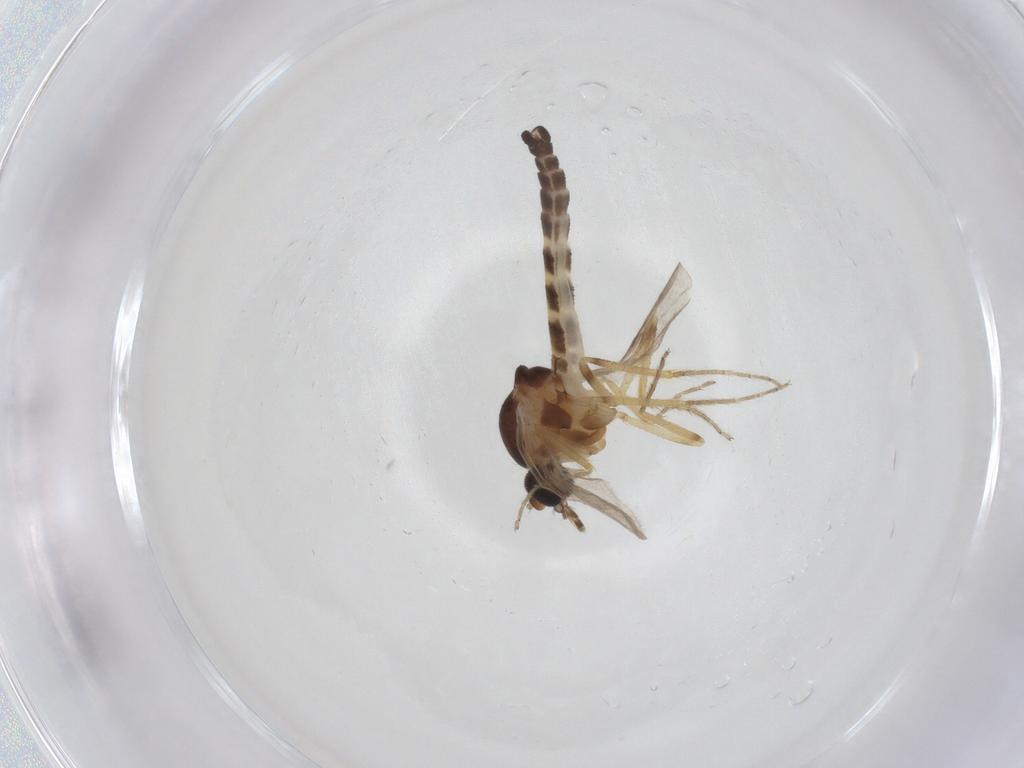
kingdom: Animalia
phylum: Arthropoda
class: Insecta
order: Diptera
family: Ceratopogonidae
